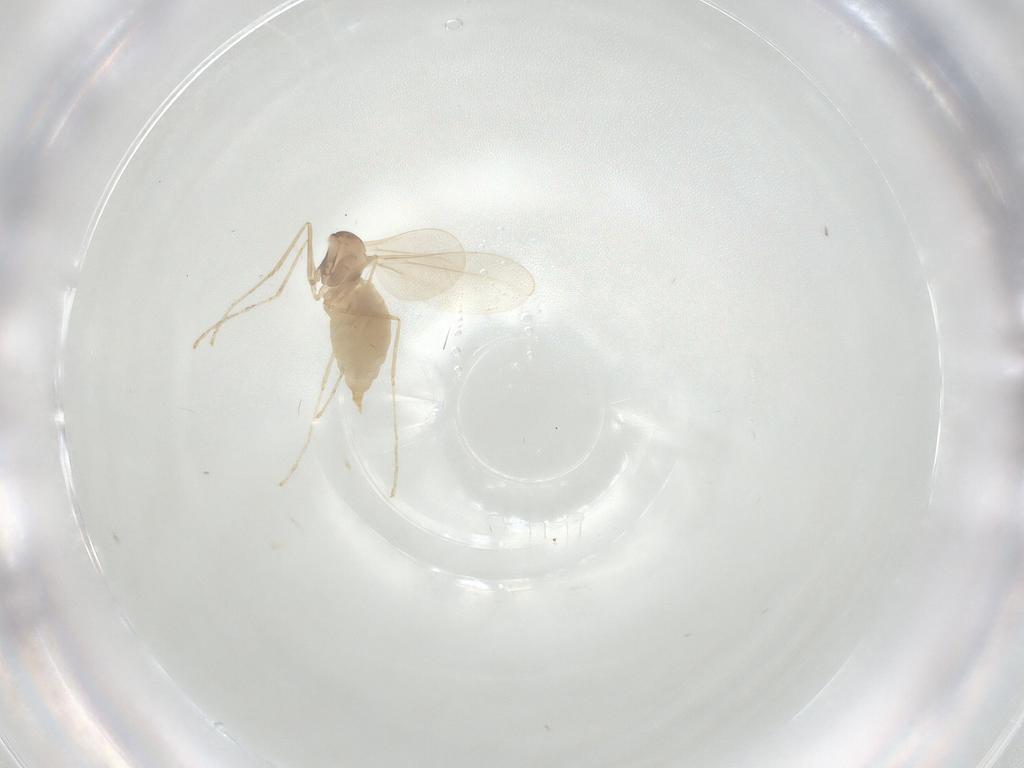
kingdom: Animalia
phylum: Arthropoda
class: Insecta
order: Diptera
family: Cecidomyiidae
